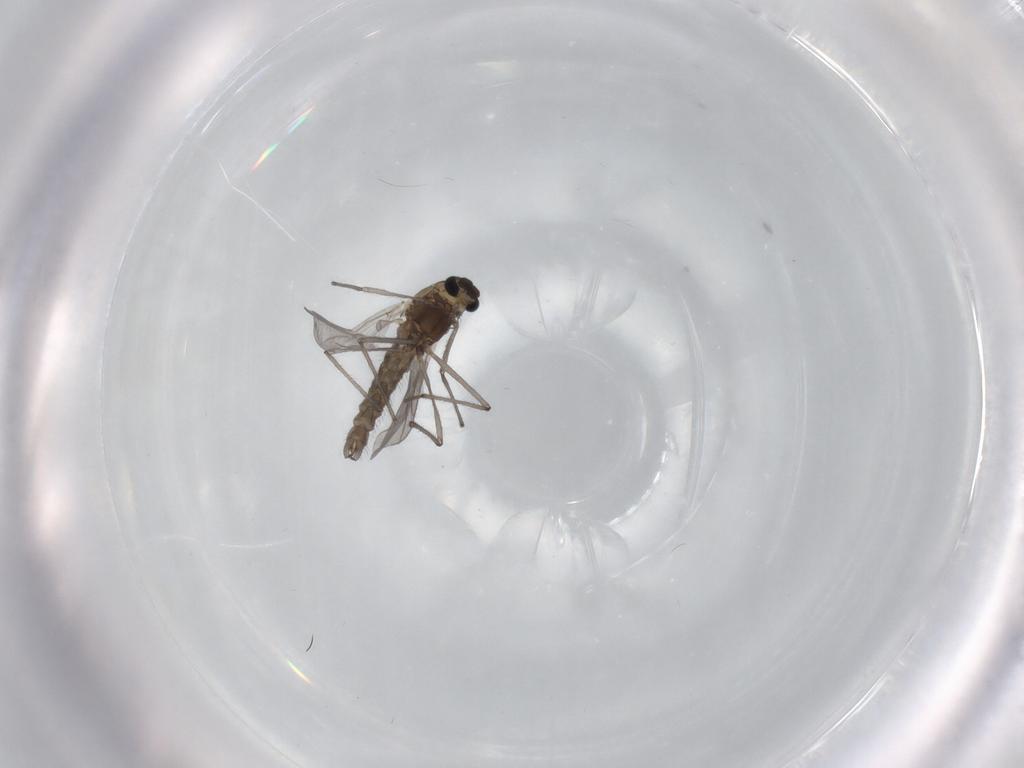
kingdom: Animalia
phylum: Arthropoda
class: Insecta
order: Diptera
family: Chironomidae
